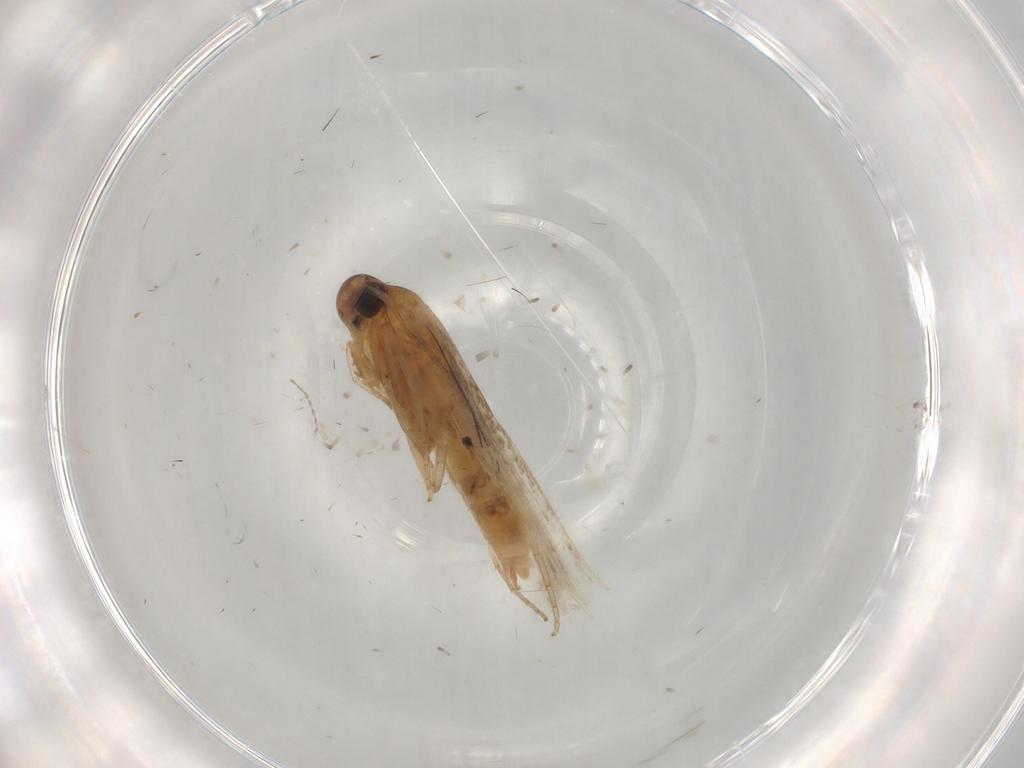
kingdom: Animalia
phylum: Arthropoda
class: Insecta
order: Lepidoptera
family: Blastobasidae
